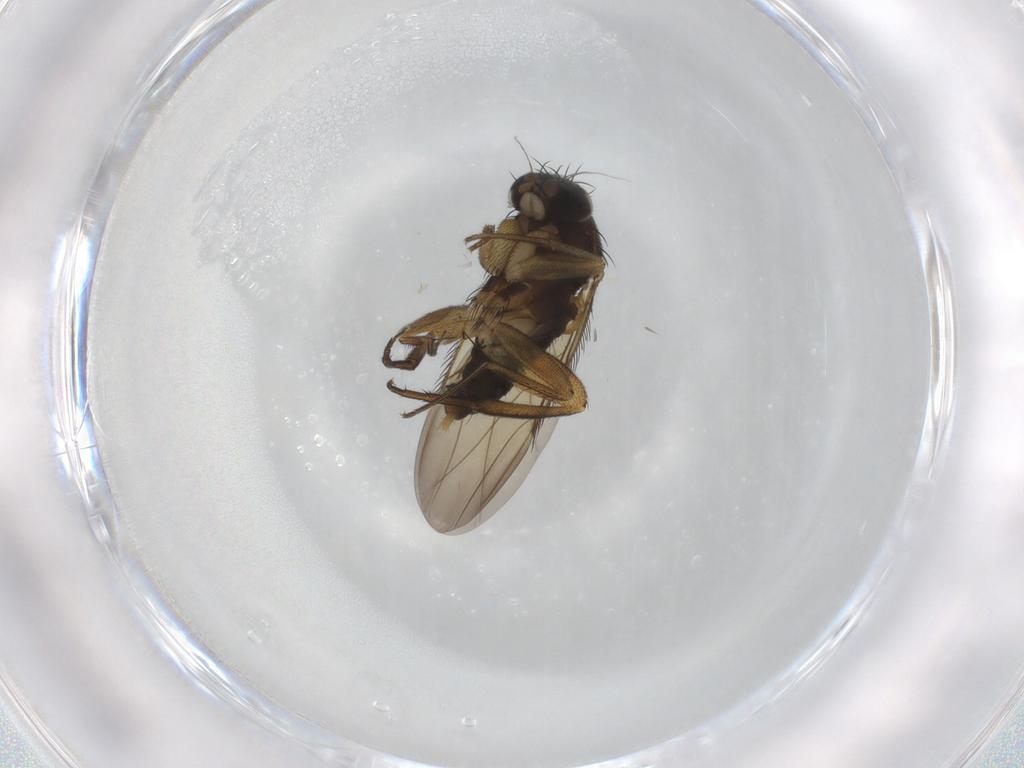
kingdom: Animalia
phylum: Arthropoda
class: Insecta
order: Diptera
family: Phoridae
